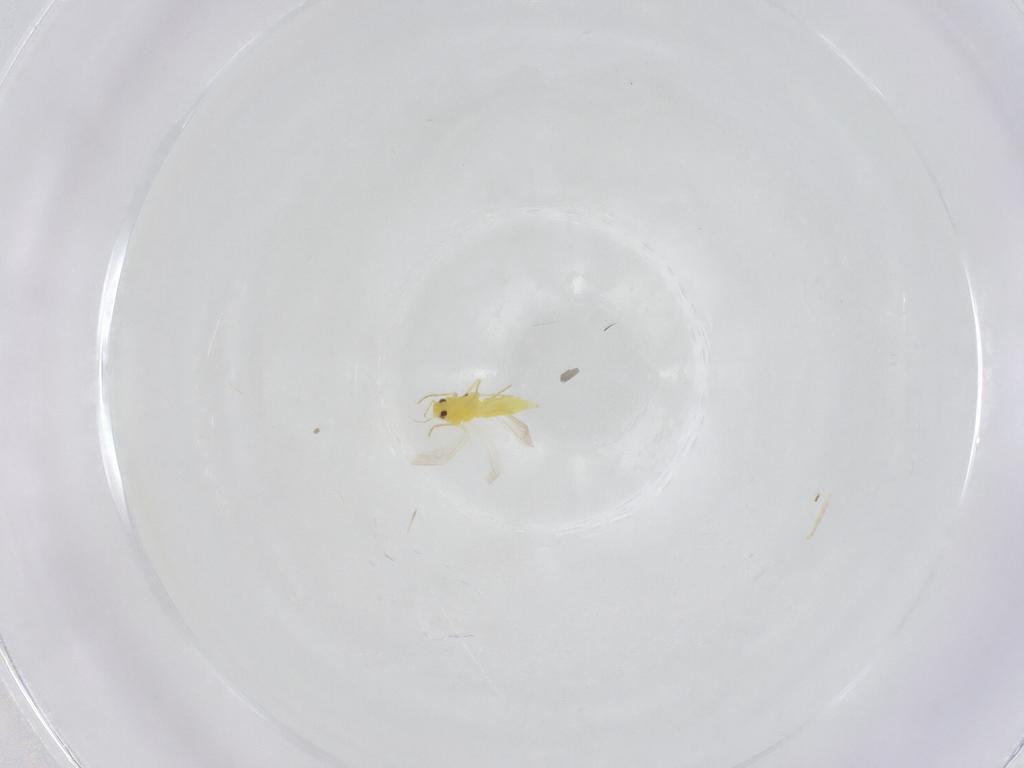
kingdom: Animalia
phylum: Arthropoda
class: Insecta
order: Hemiptera
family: Aleyrodidae
